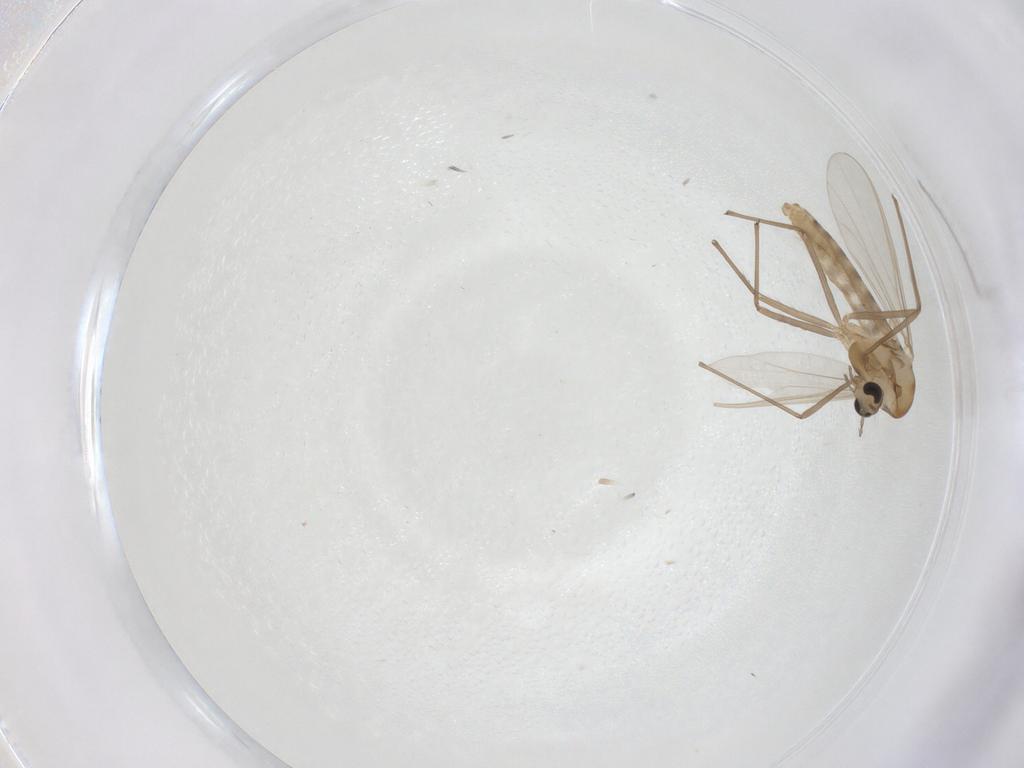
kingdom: Animalia
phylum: Arthropoda
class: Insecta
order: Diptera
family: Chironomidae
